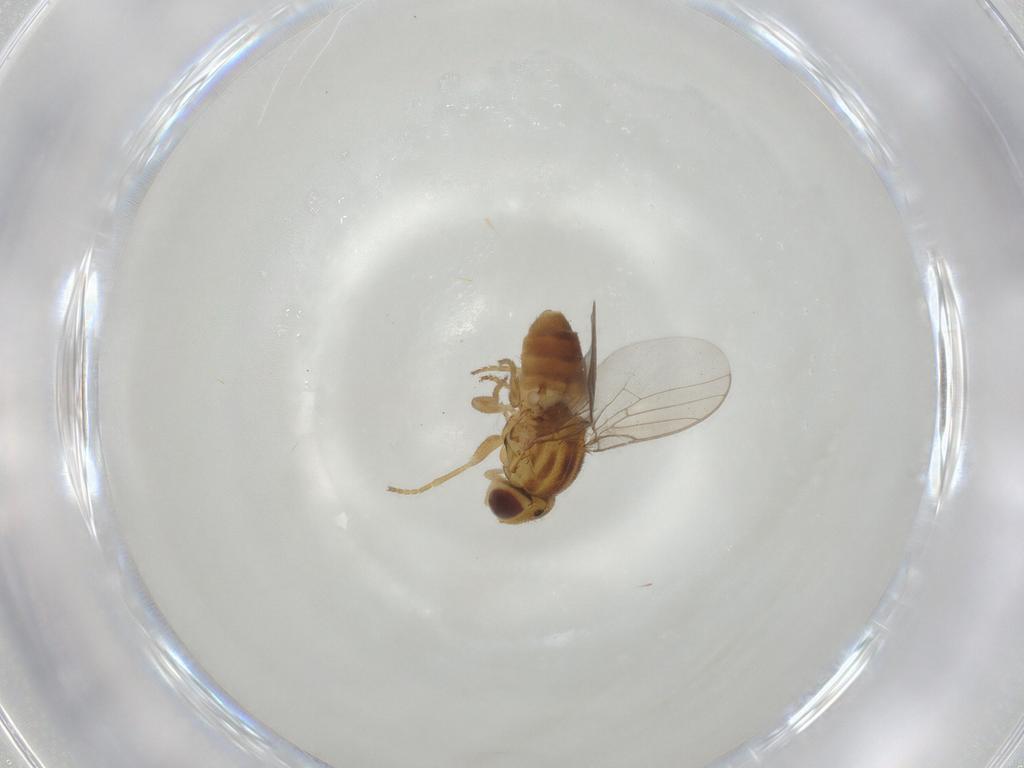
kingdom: Animalia
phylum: Arthropoda
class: Insecta
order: Diptera
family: Chloropidae
